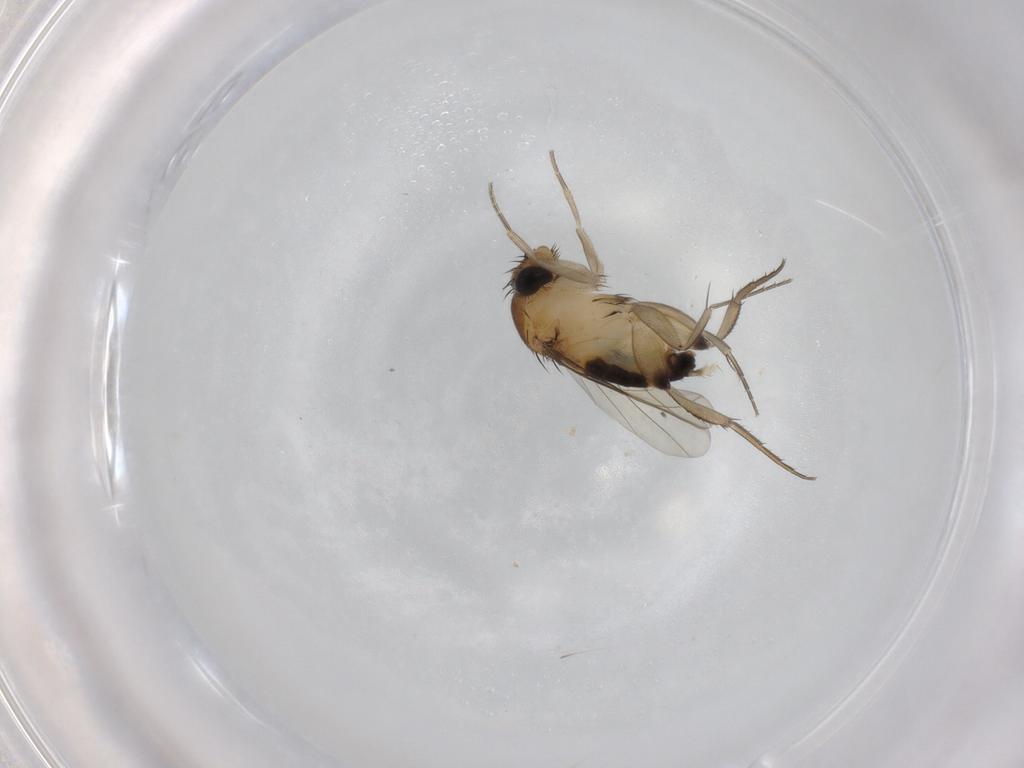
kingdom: Animalia
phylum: Arthropoda
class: Insecta
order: Diptera
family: Phoridae
